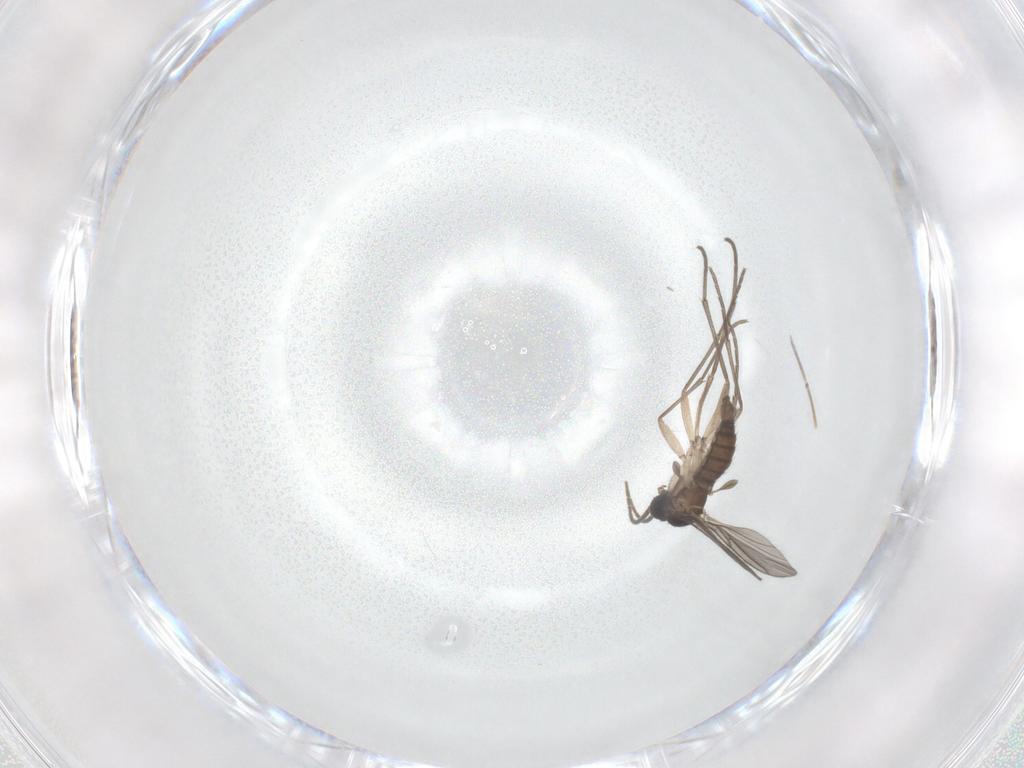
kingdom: Animalia
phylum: Arthropoda
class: Insecta
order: Diptera
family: Sciaridae
